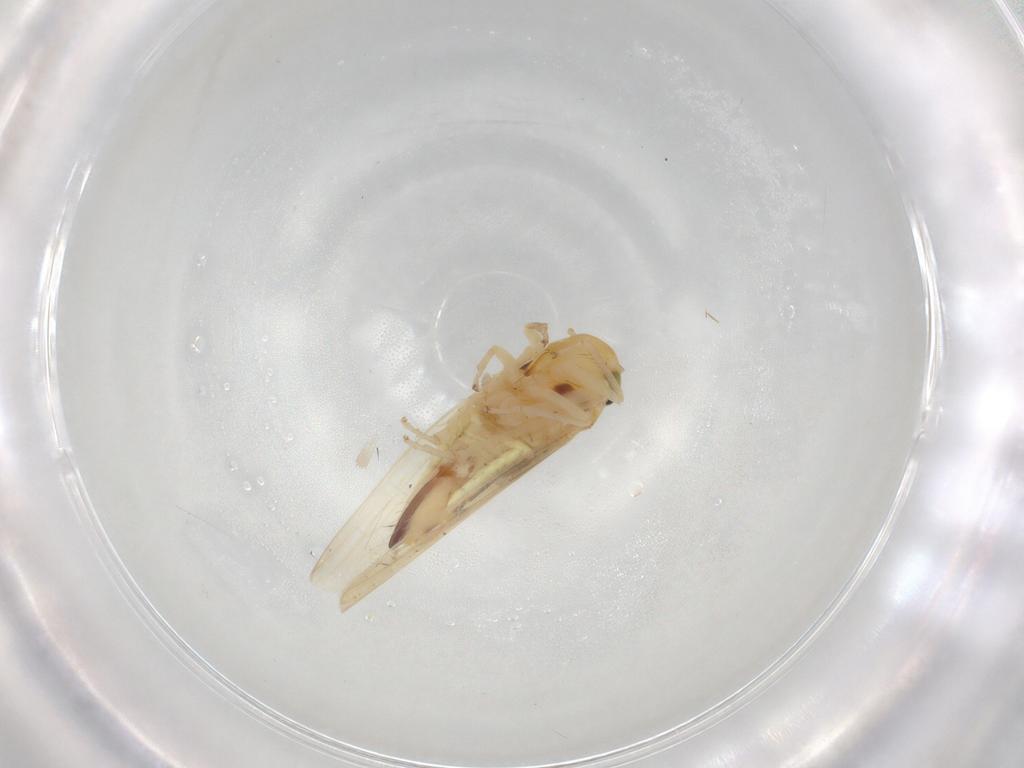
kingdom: Animalia
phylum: Arthropoda
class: Insecta
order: Hemiptera
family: Cicadellidae
